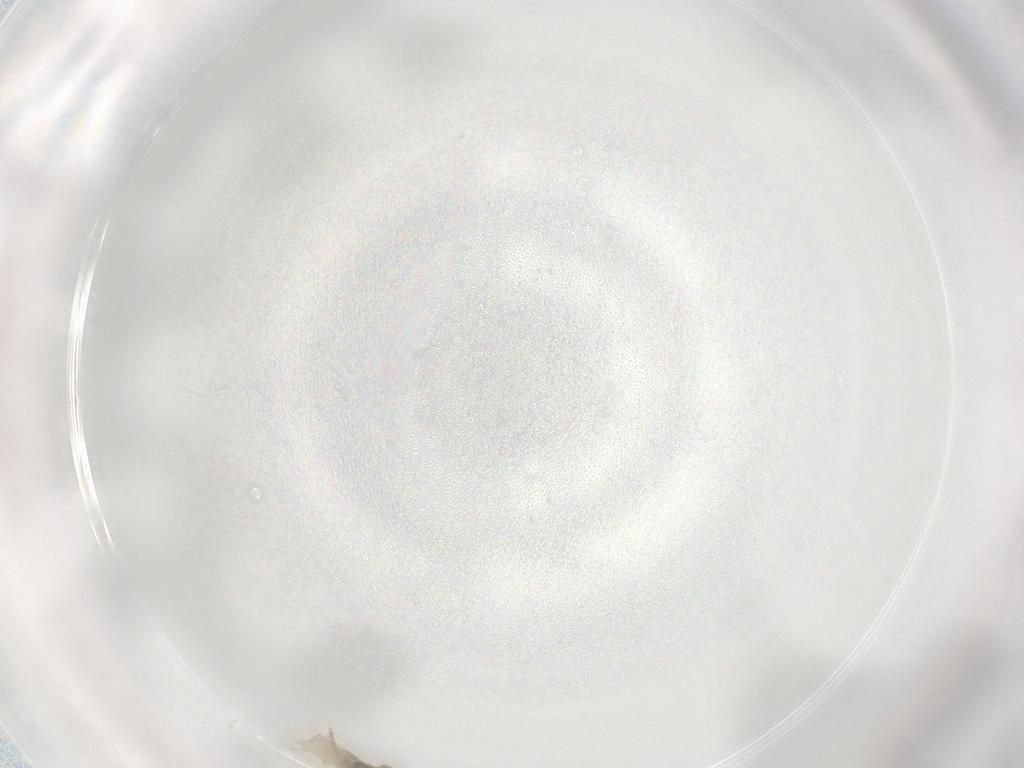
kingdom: Animalia
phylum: Arthropoda
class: Insecta
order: Diptera
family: Cecidomyiidae
